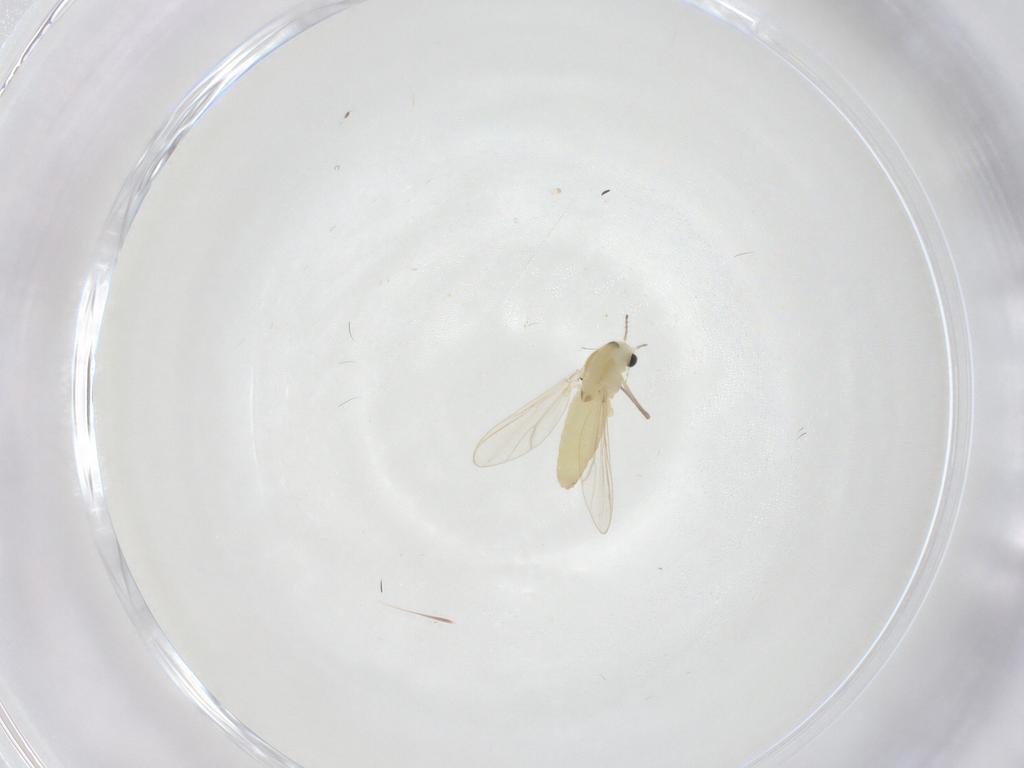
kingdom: Animalia
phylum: Arthropoda
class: Insecta
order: Diptera
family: Chironomidae
